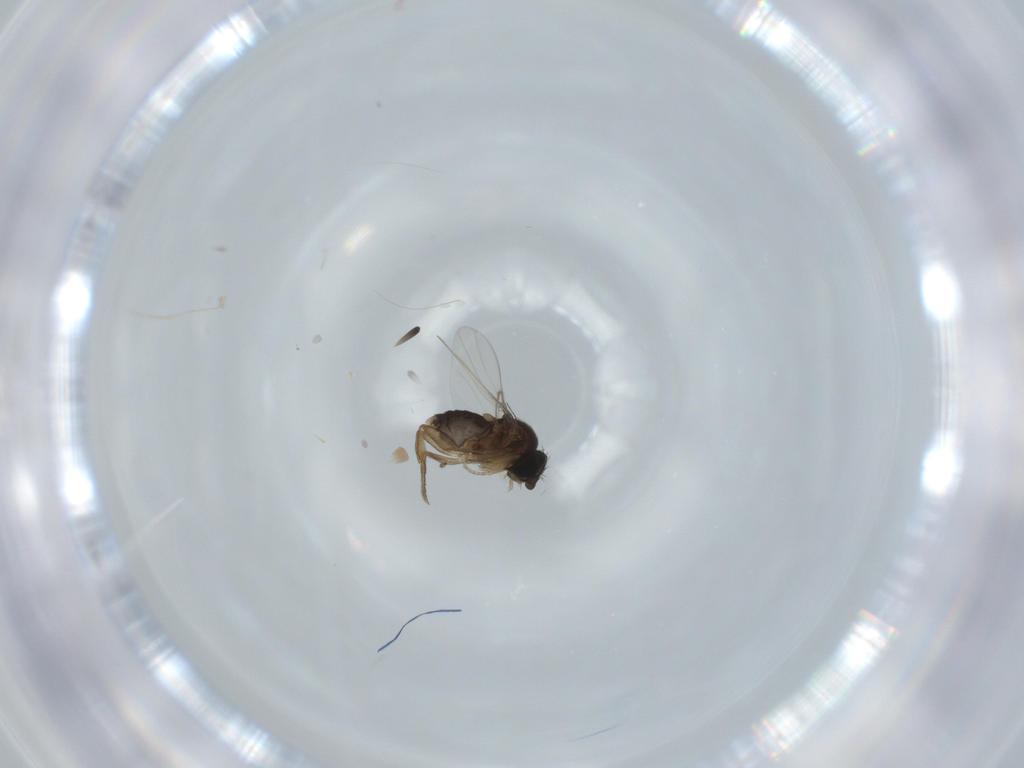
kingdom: Animalia
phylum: Arthropoda
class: Insecta
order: Diptera
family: Phoridae
